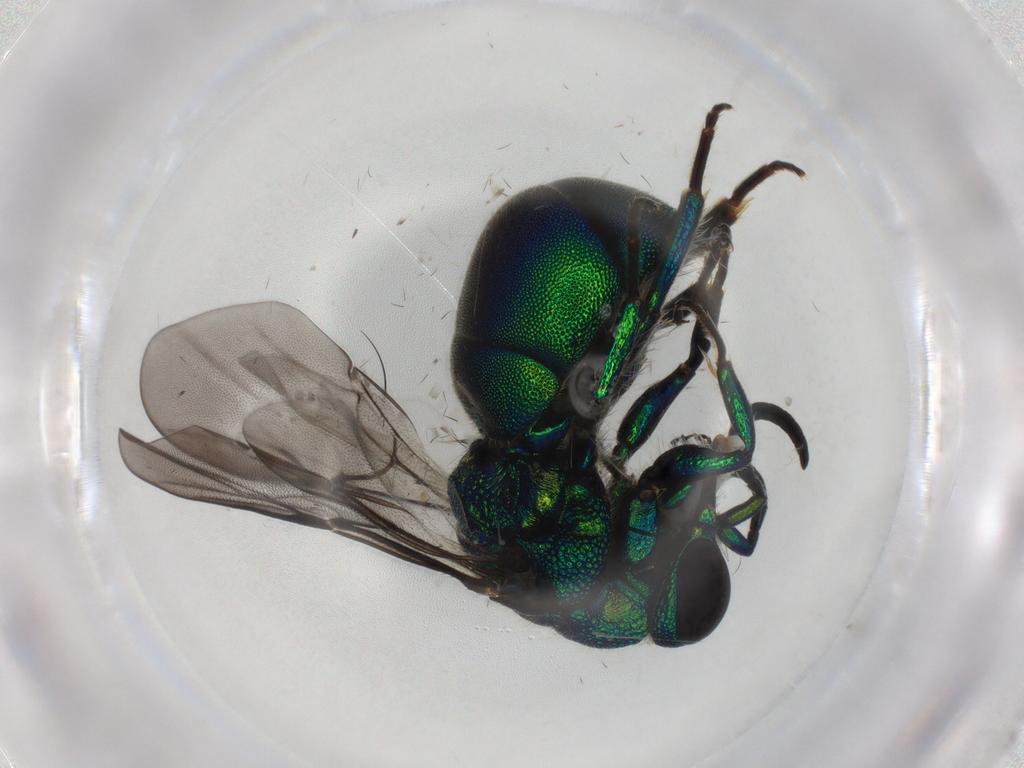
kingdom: Animalia
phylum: Arthropoda
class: Insecta
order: Hymenoptera
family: Chrysididae
